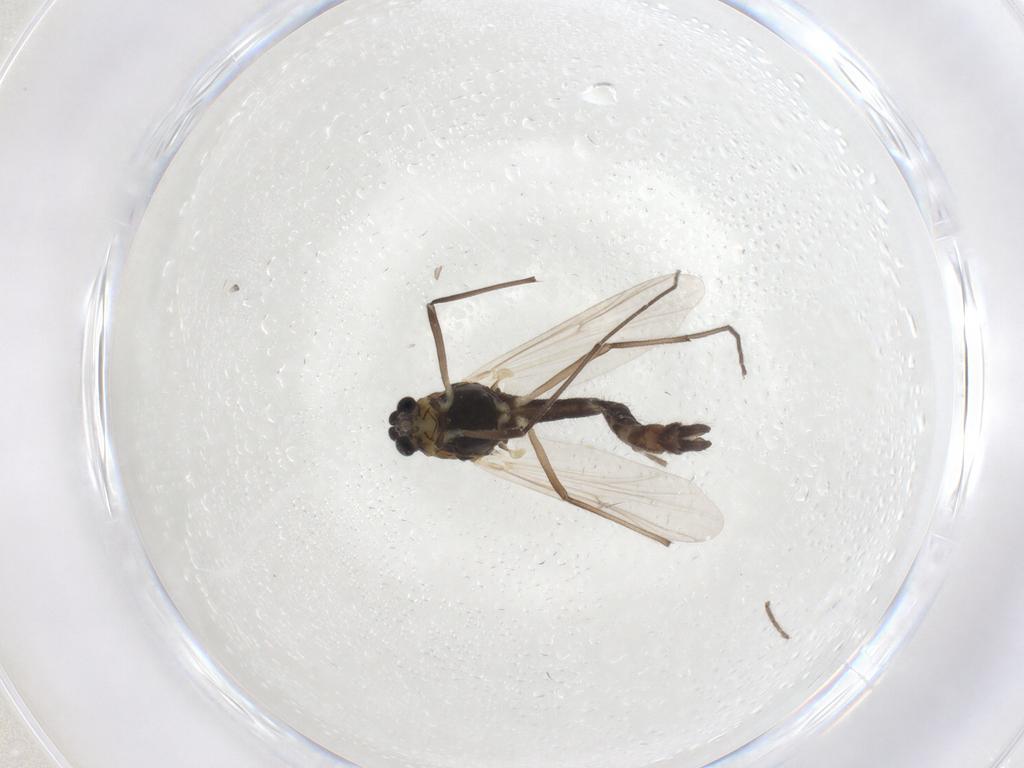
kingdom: Animalia
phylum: Arthropoda
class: Insecta
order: Diptera
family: Chironomidae
